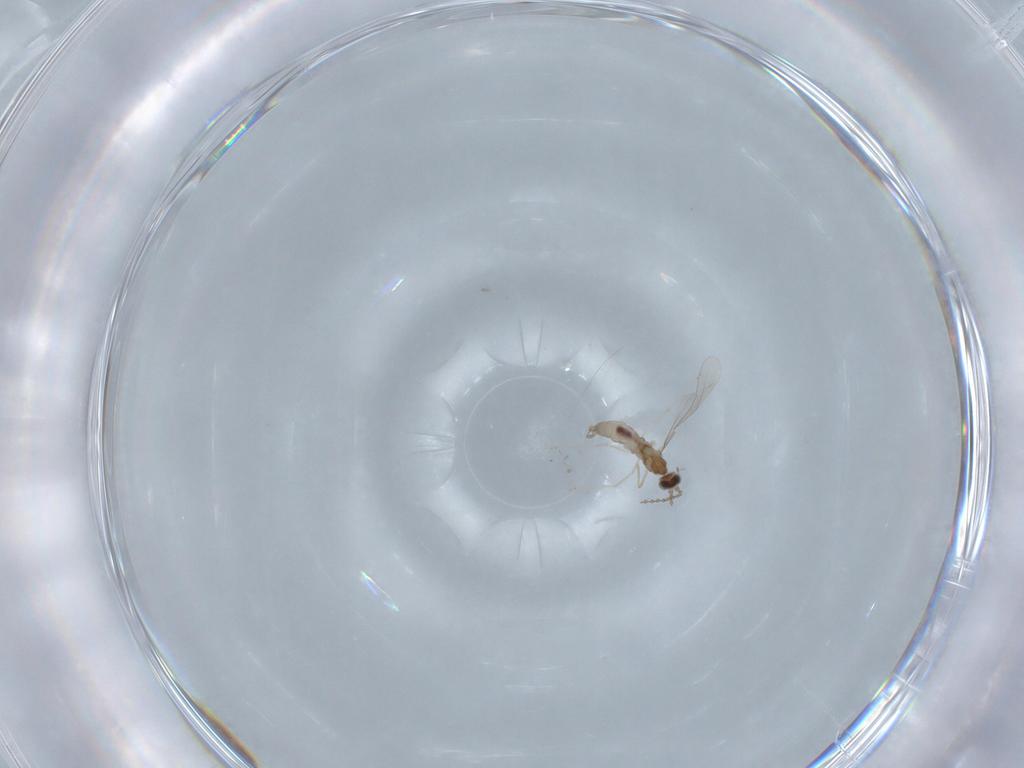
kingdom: Animalia
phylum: Arthropoda
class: Insecta
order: Diptera
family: Cecidomyiidae
